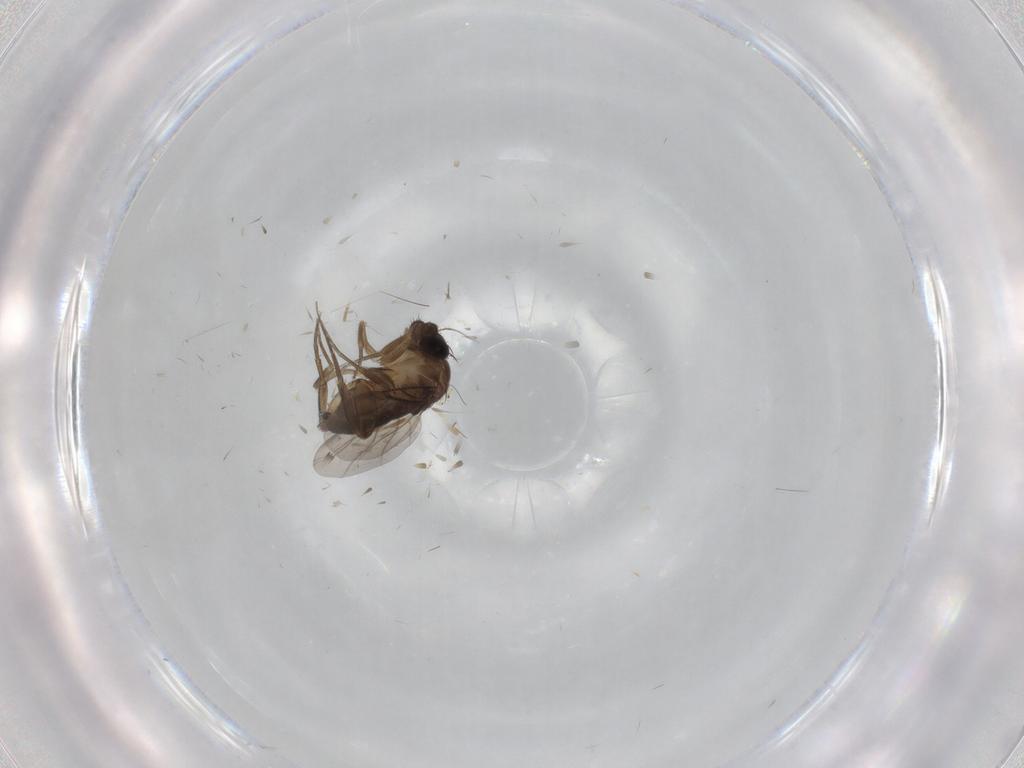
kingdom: Animalia
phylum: Arthropoda
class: Insecta
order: Diptera
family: Phoridae
